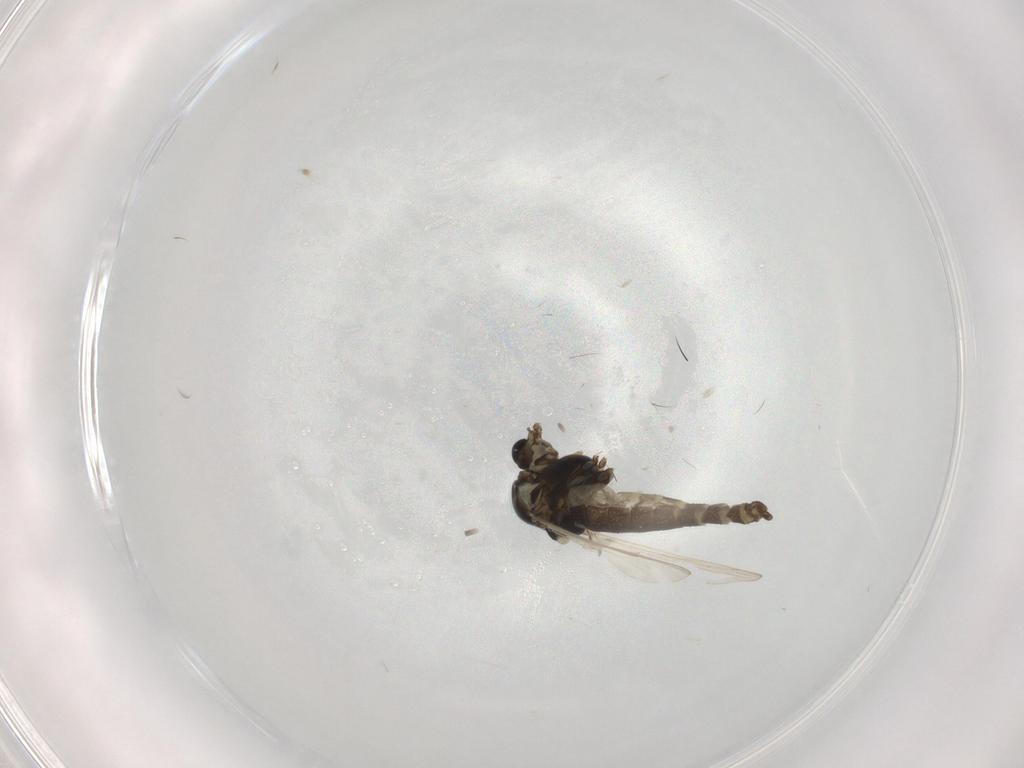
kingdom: Animalia
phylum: Arthropoda
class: Insecta
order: Diptera
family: Chironomidae
